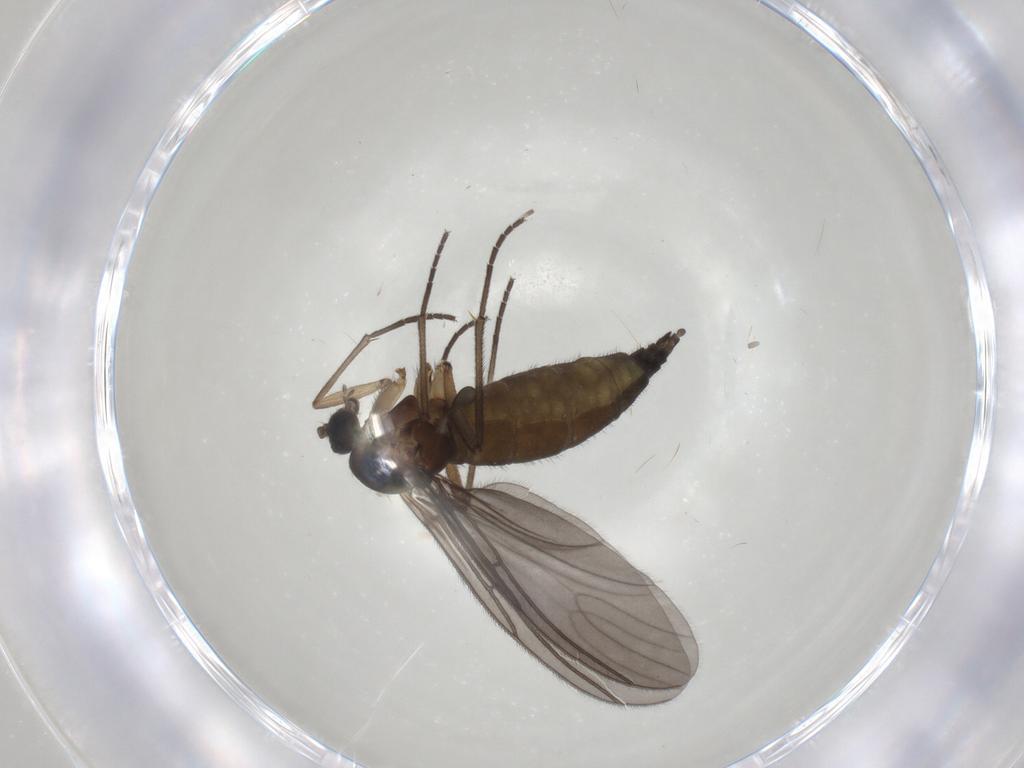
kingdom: Animalia
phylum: Arthropoda
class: Insecta
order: Diptera
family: Sciaridae
